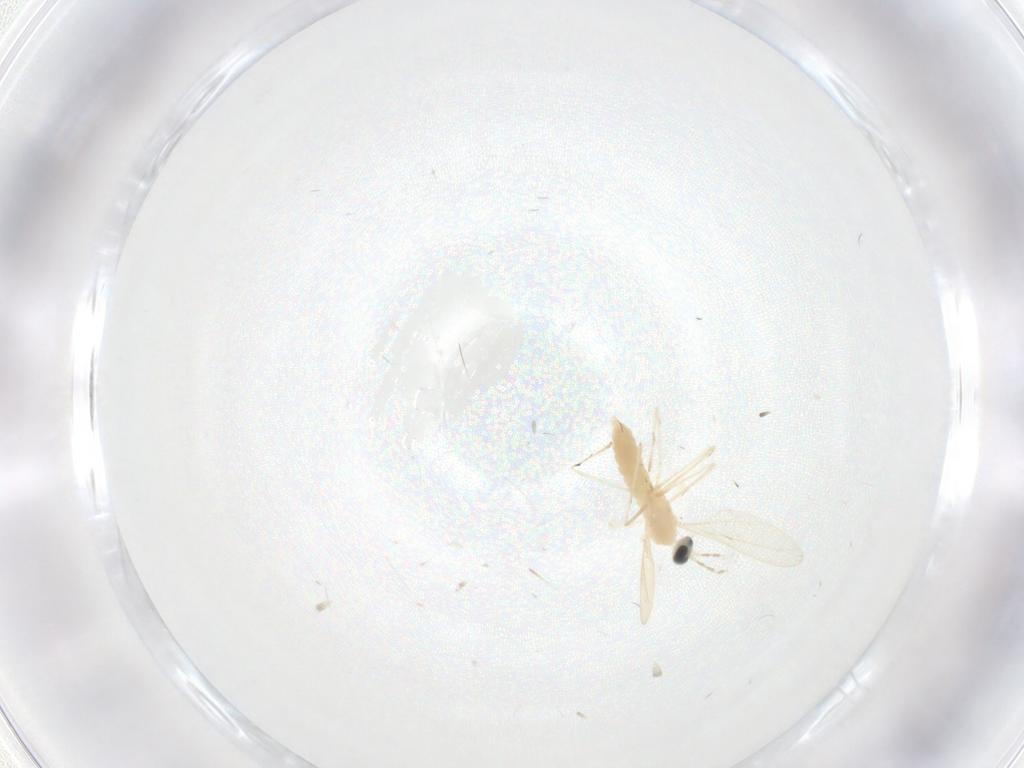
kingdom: Animalia
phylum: Arthropoda
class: Insecta
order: Diptera
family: Cecidomyiidae
